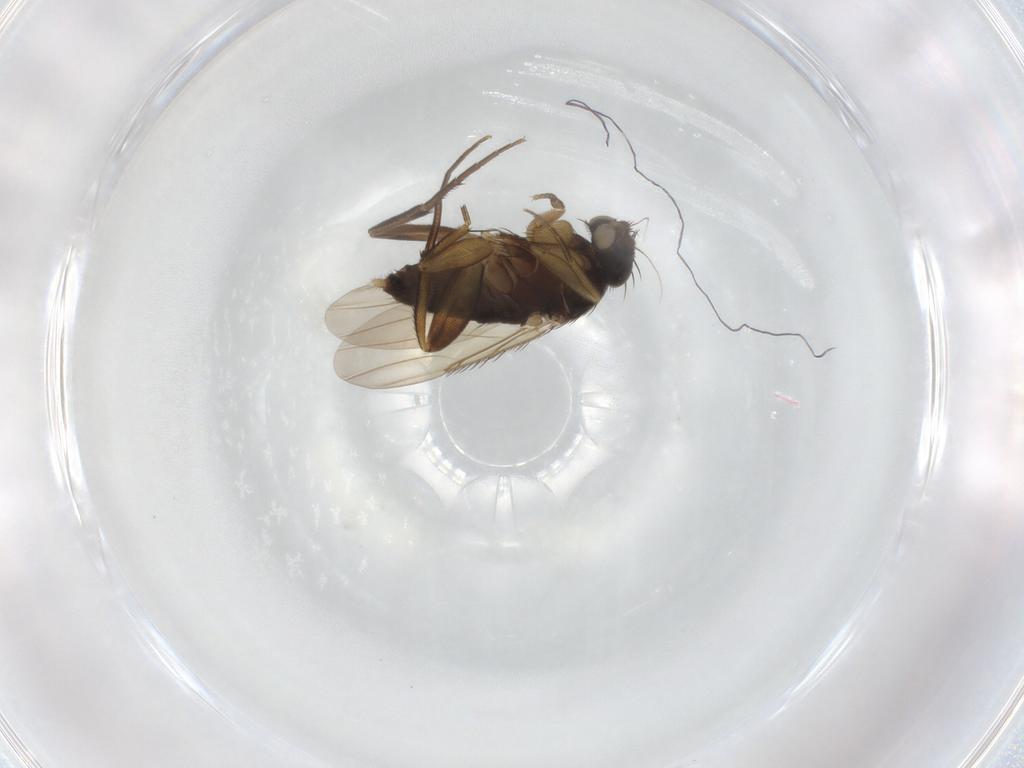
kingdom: Animalia
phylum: Arthropoda
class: Insecta
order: Diptera
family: Phoridae
